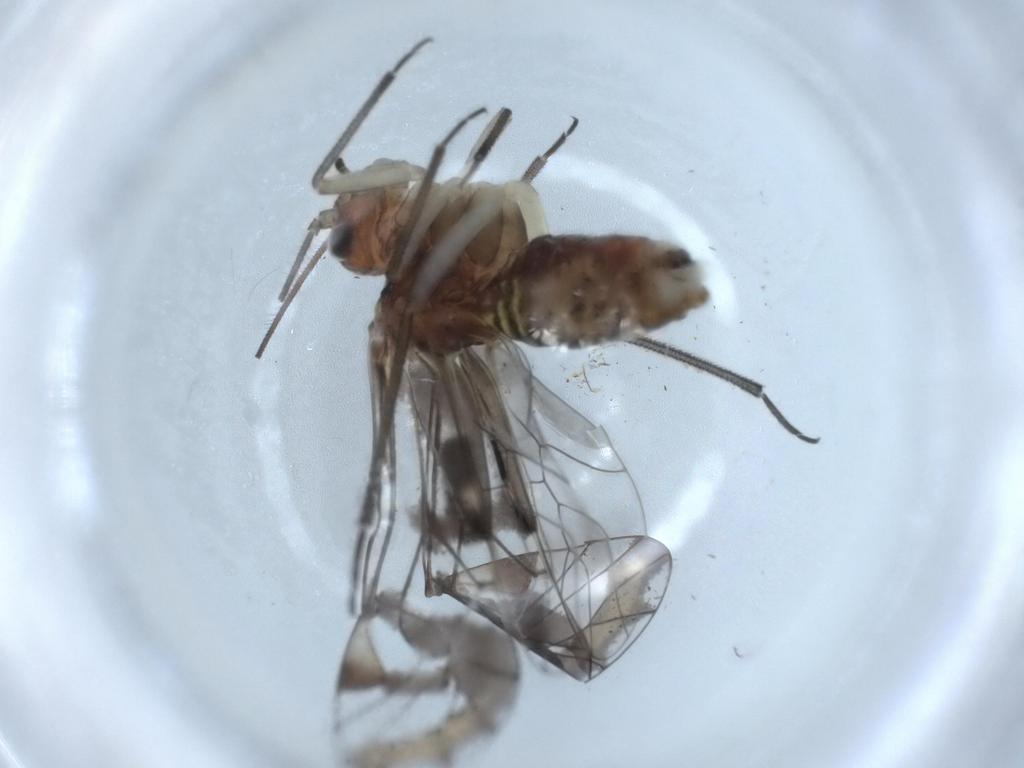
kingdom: Animalia
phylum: Arthropoda
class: Insecta
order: Psocodea
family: Psocidae
